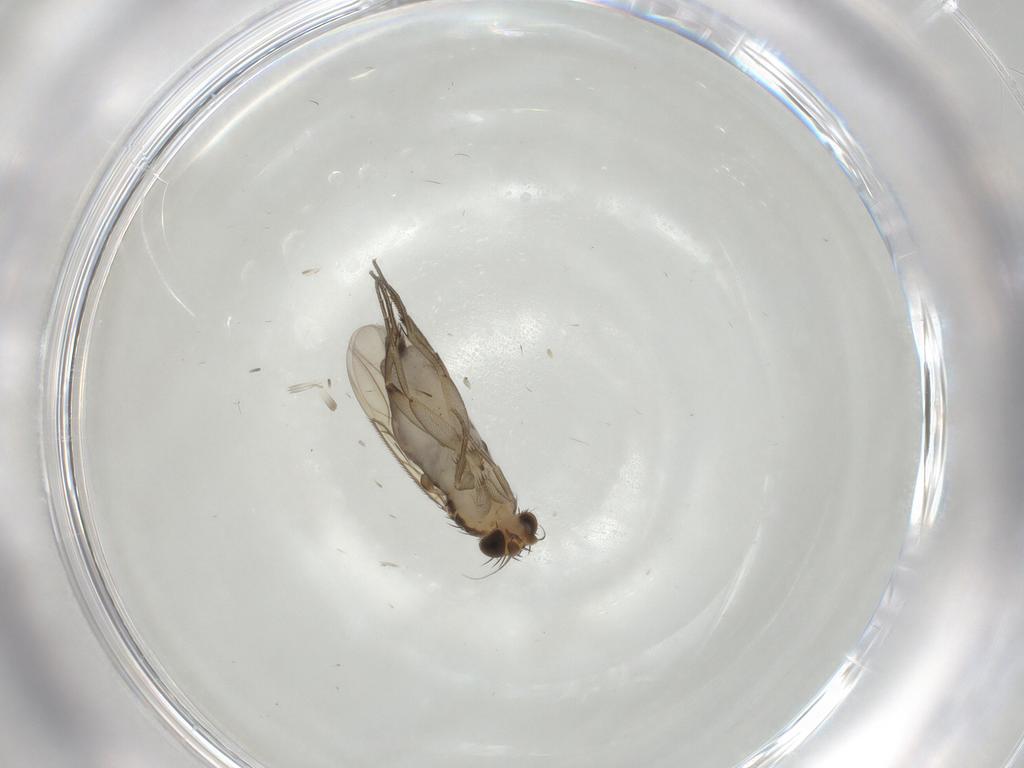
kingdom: Animalia
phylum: Arthropoda
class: Insecta
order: Diptera
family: Phoridae
